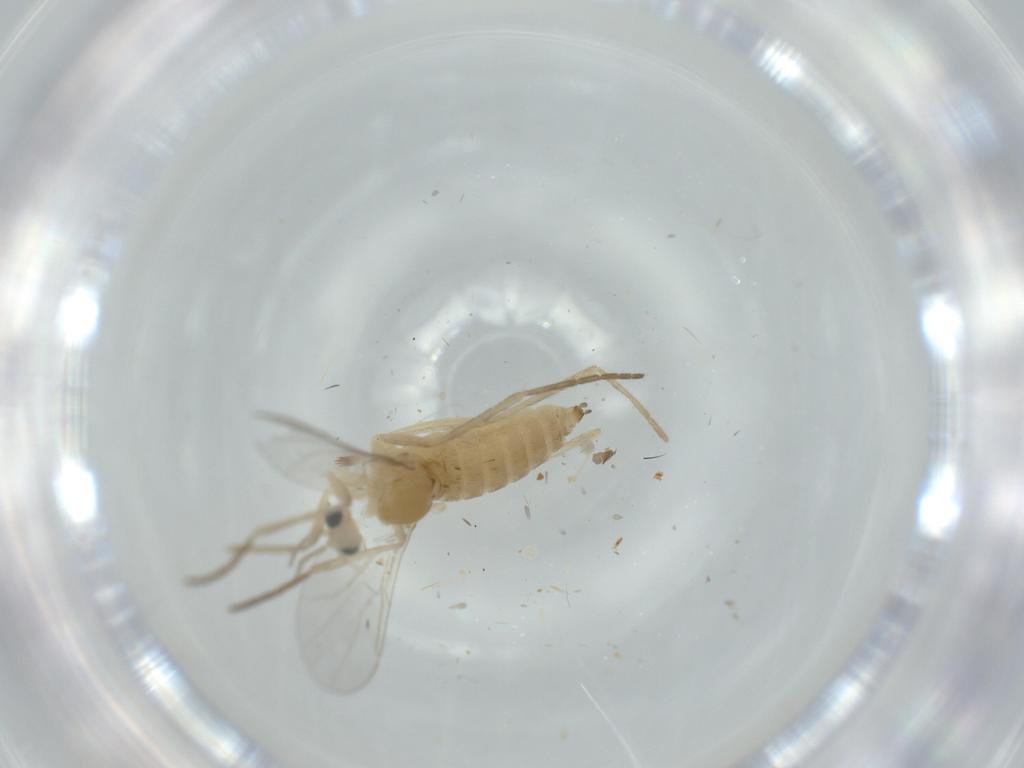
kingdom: Animalia
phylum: Arthropoda
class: Insecta
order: Diptera
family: Cecidomyiidae
